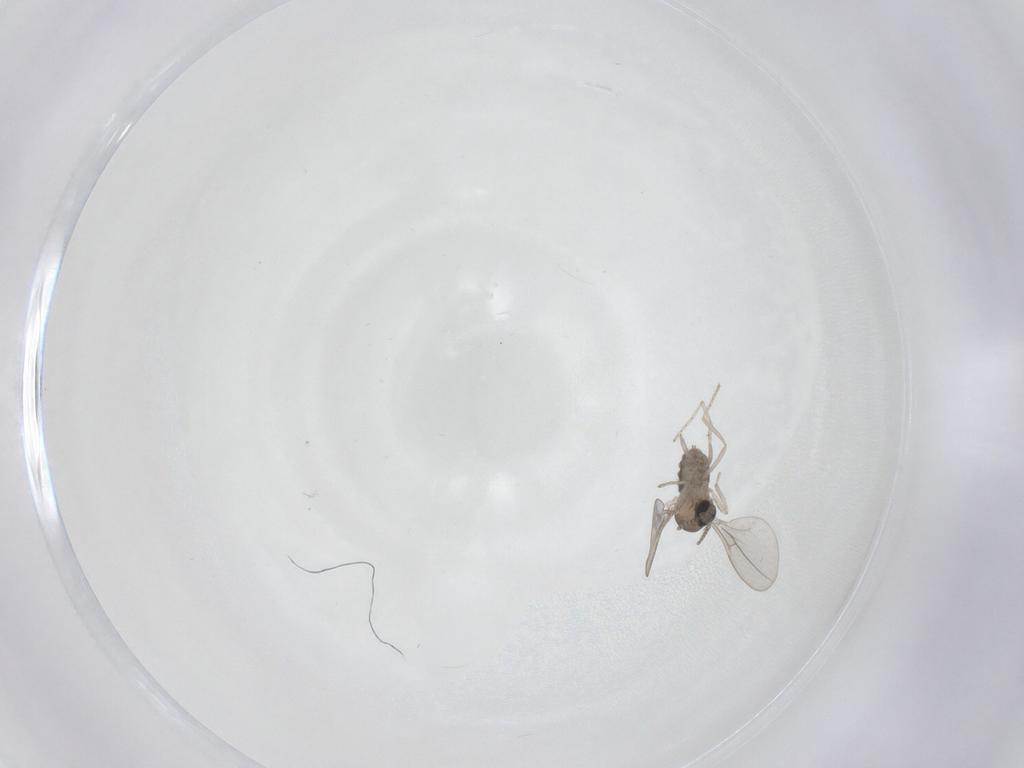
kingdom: Animalia
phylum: Arthropoda
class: Insecta
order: Diptera
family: Cecidomyiidae
